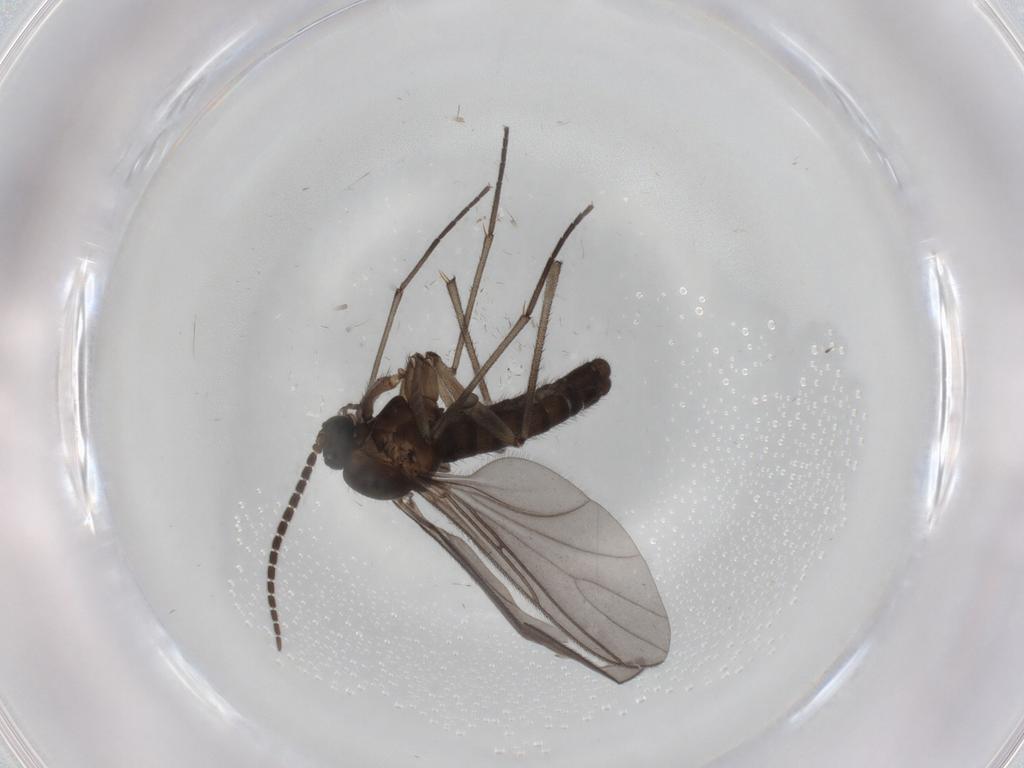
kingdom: Animalia
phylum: Arthropoda
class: Insecta
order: Diptera
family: Sciaridae
